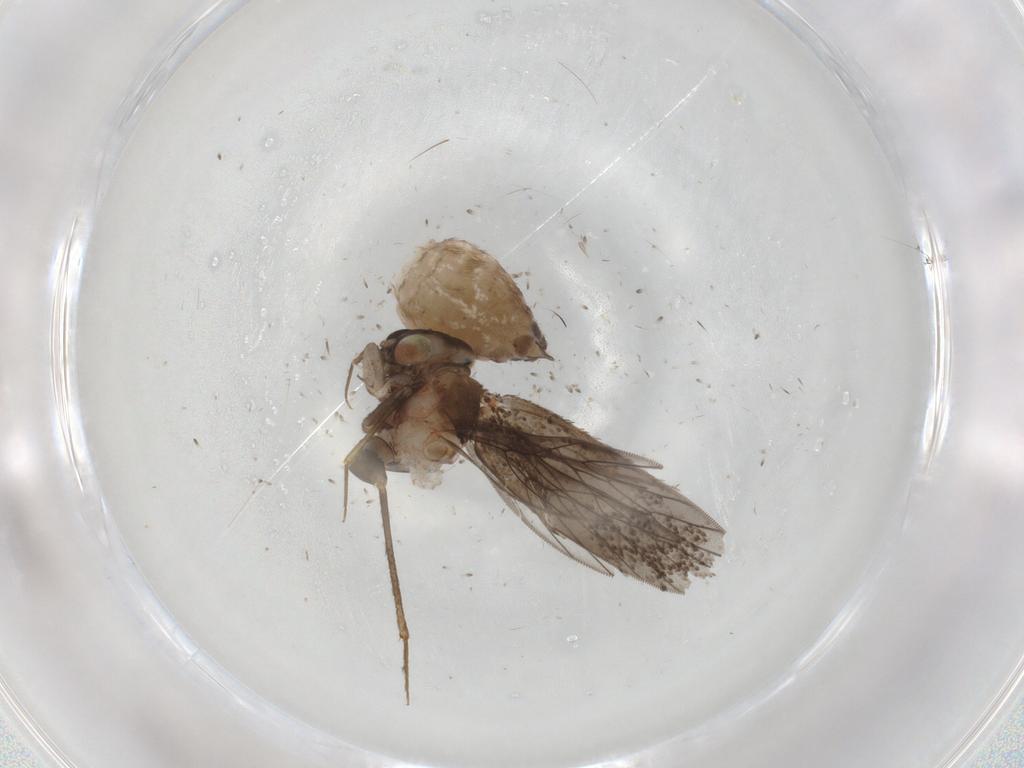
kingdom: Animalia
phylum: Arthropoda
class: Insecta
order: Psocodea
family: Lepidopsocidae
